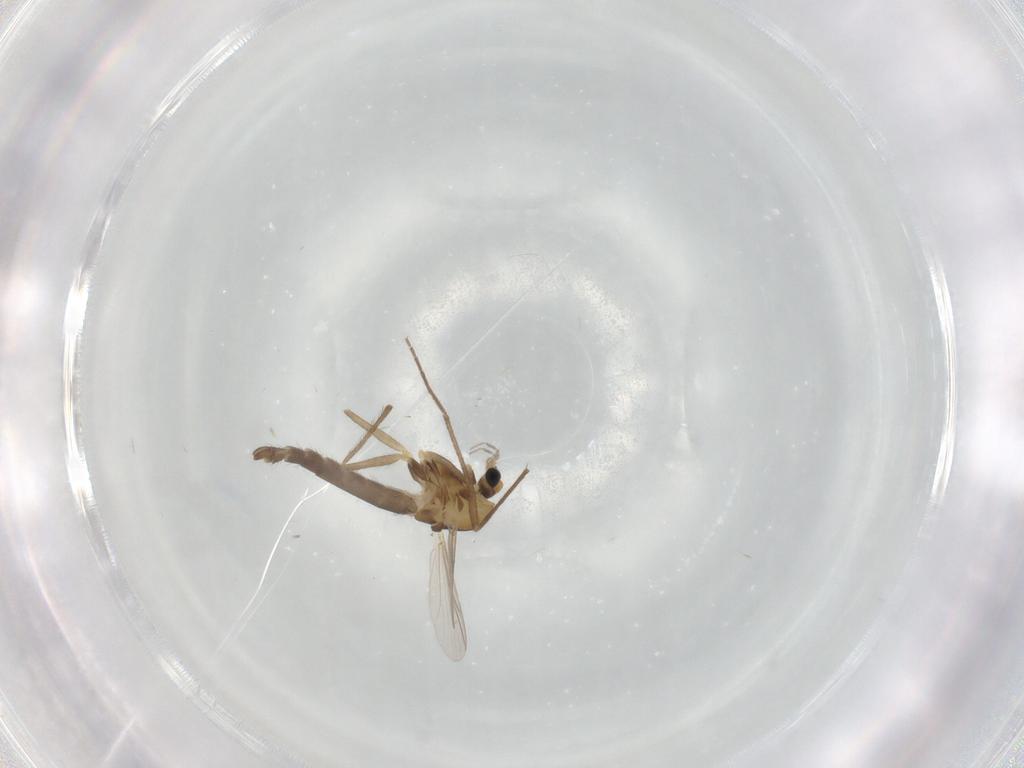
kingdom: Animalia
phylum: Arthropoda
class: Insecta
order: Diptera
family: Chironomidae
